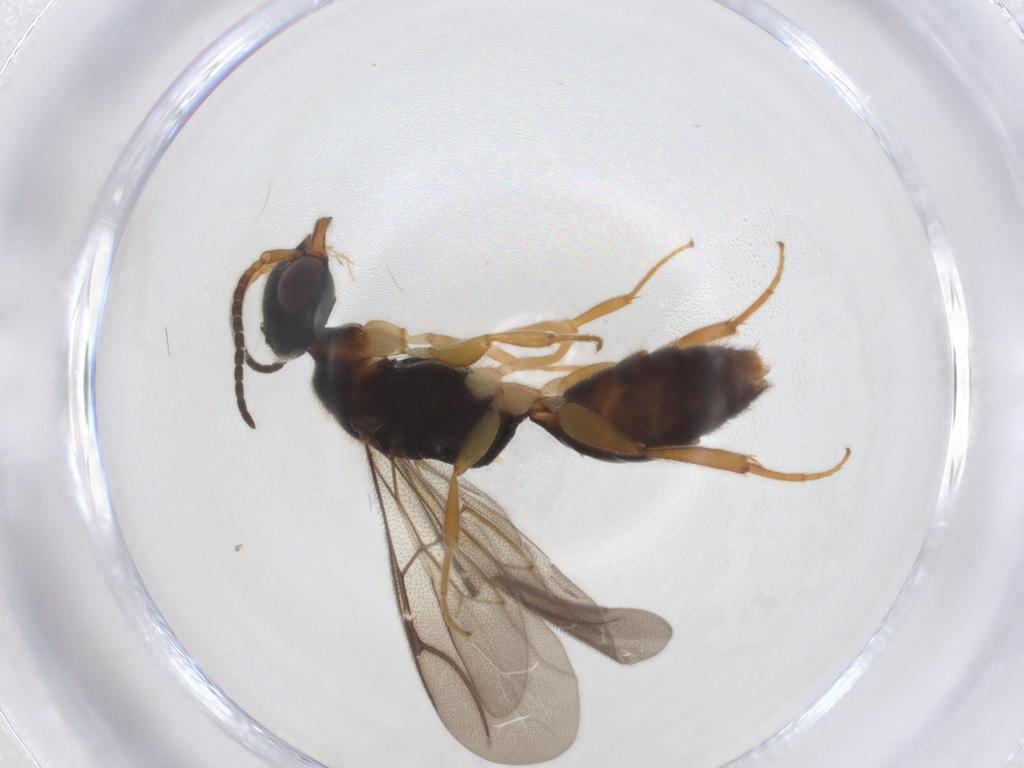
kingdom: Animalia
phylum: Arthropoda
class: Insecta
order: Hymenoptera
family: Bethylidae
